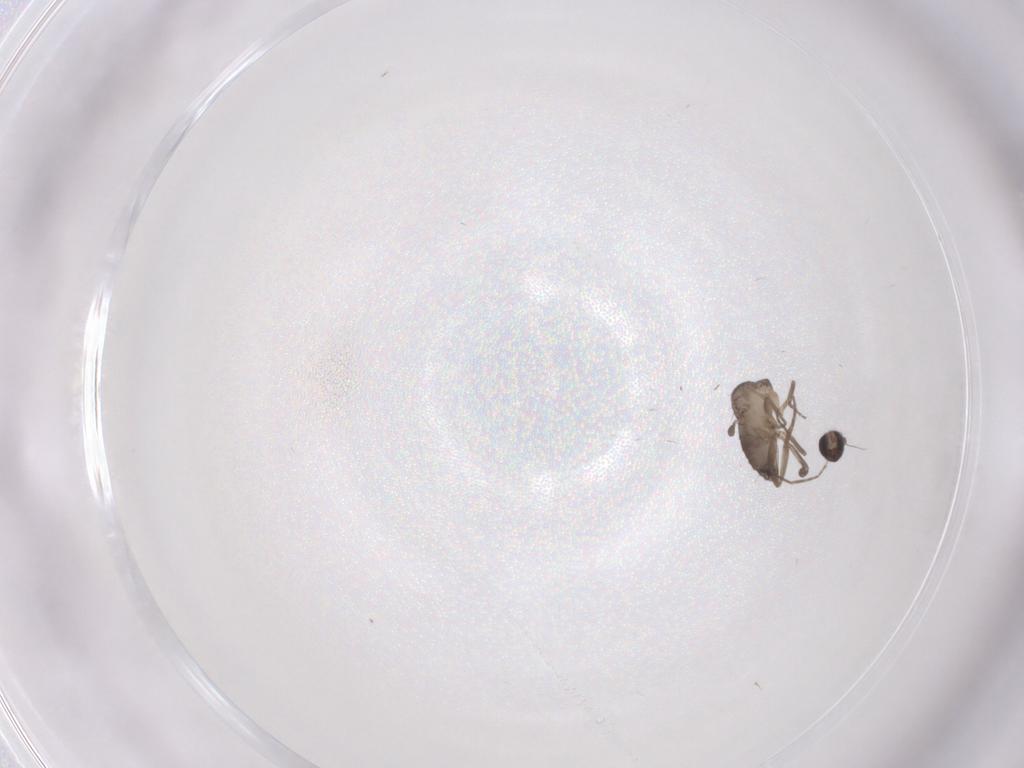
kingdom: Animalia
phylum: Arthropoda
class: Insecta
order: Diptera
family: Phoridae
